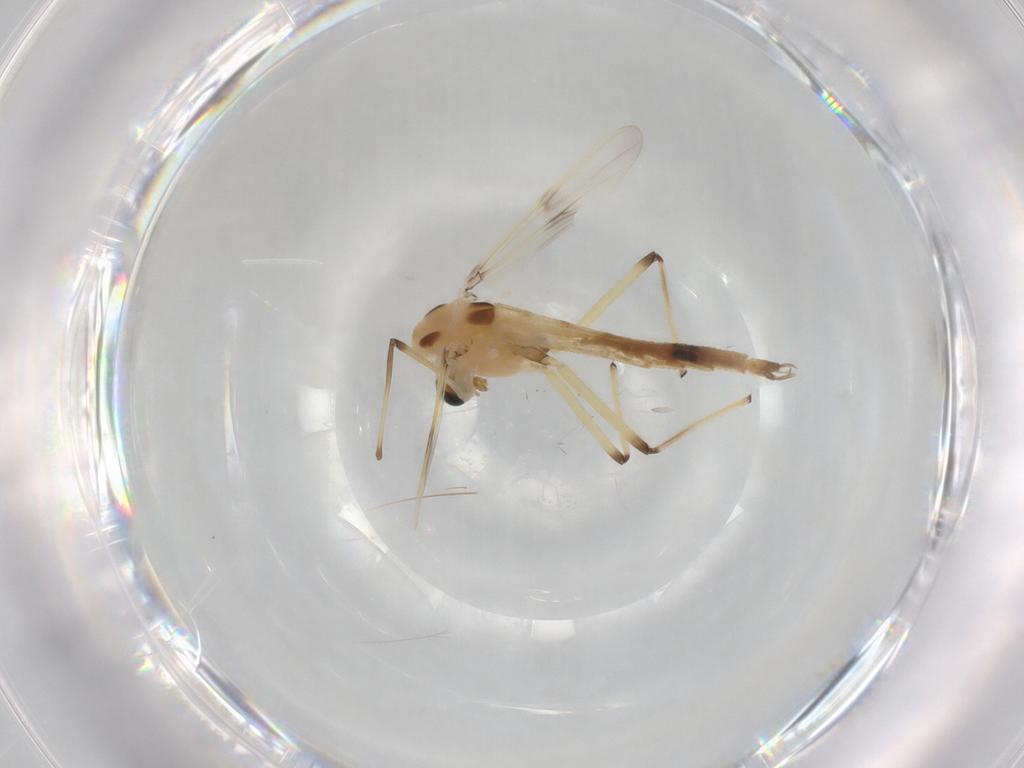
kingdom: Animalia
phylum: Arthropoda
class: Insecta
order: Diptera
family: Chironomidae
